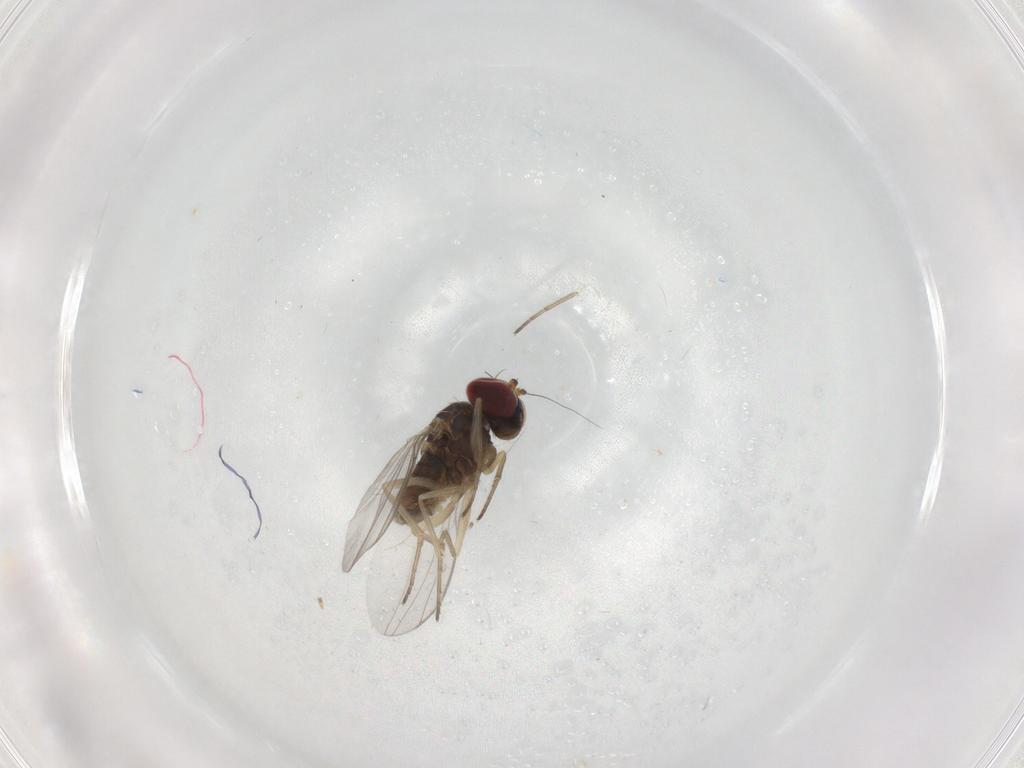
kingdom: Animalia
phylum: Arthropoda
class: Insecta
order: Diptera
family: Dolichopodidae
